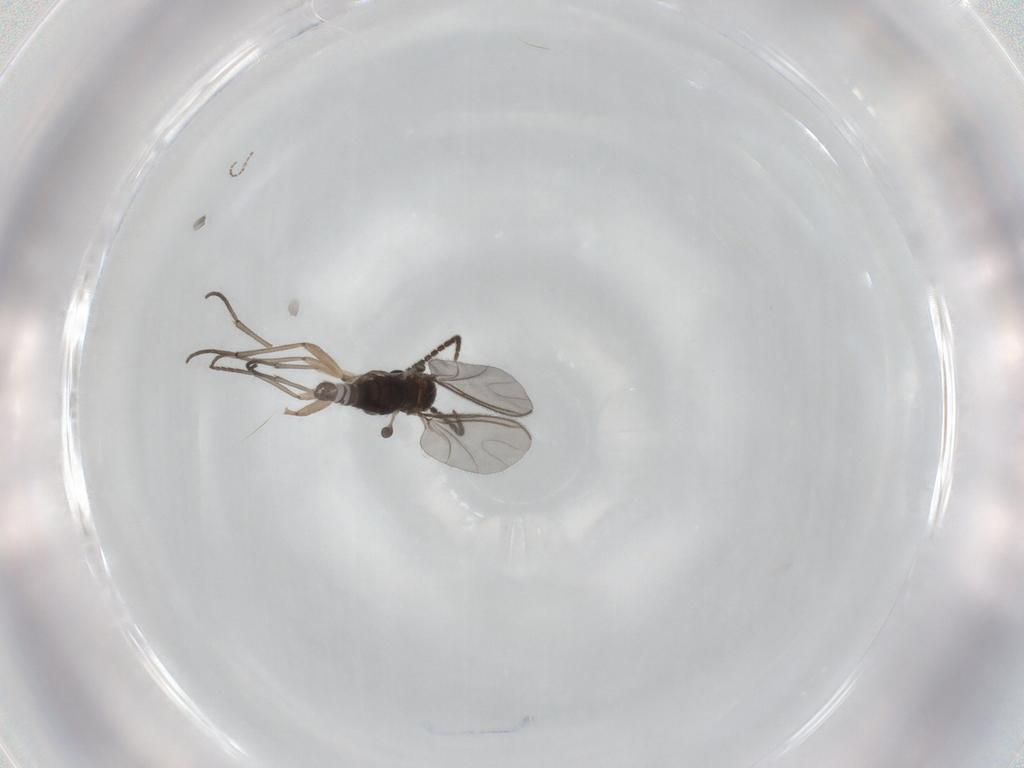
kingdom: Animalia
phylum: Arthropoda
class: Insecta
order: Diptera
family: Sciaridae
